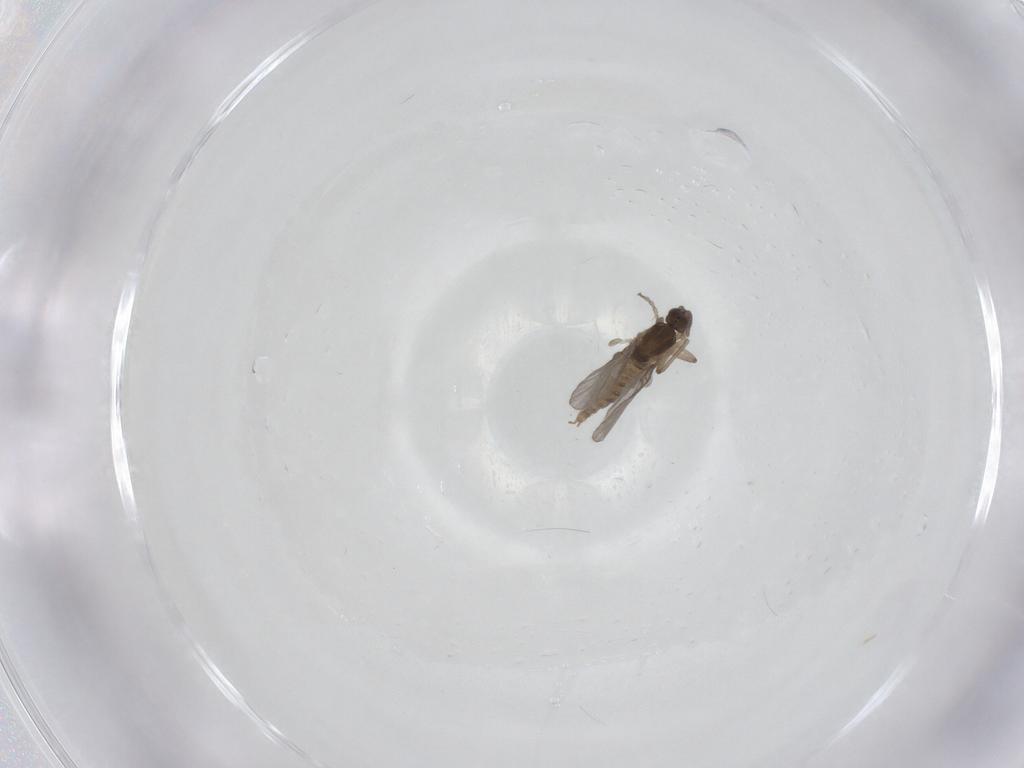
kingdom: Animalia
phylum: Arthropoda
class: Insecta
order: Diptera
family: Cecidomyiidae
